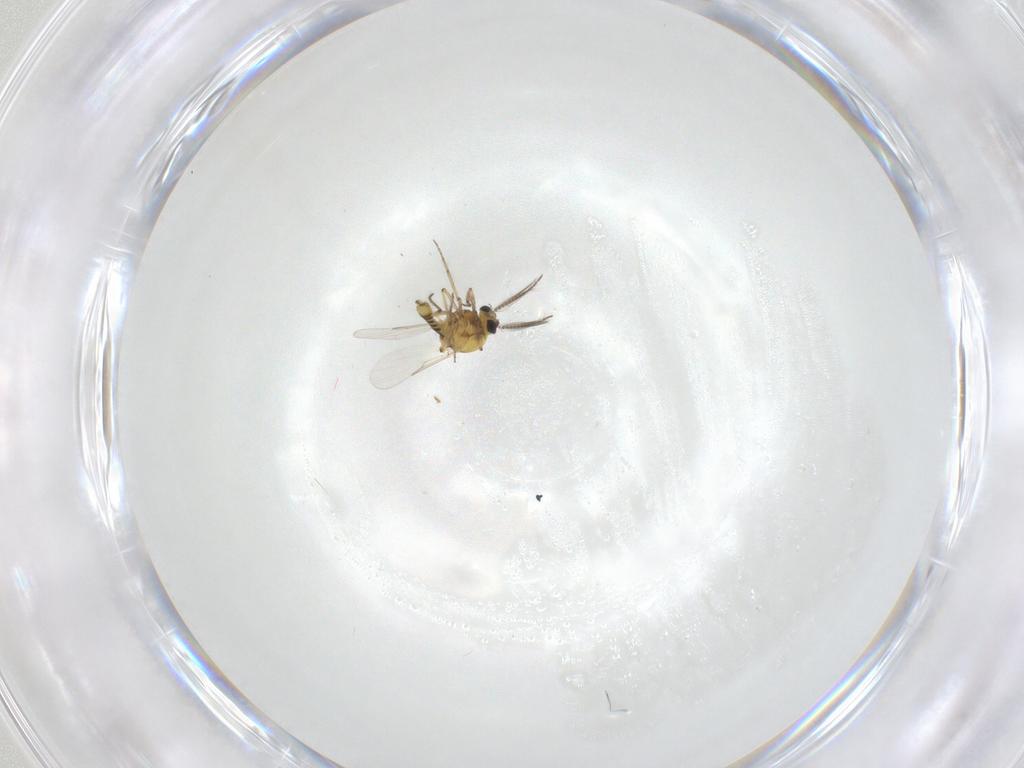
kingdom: Animalia
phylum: Arthropoda
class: Insecta
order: Diptera
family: Ceratopogonidae
